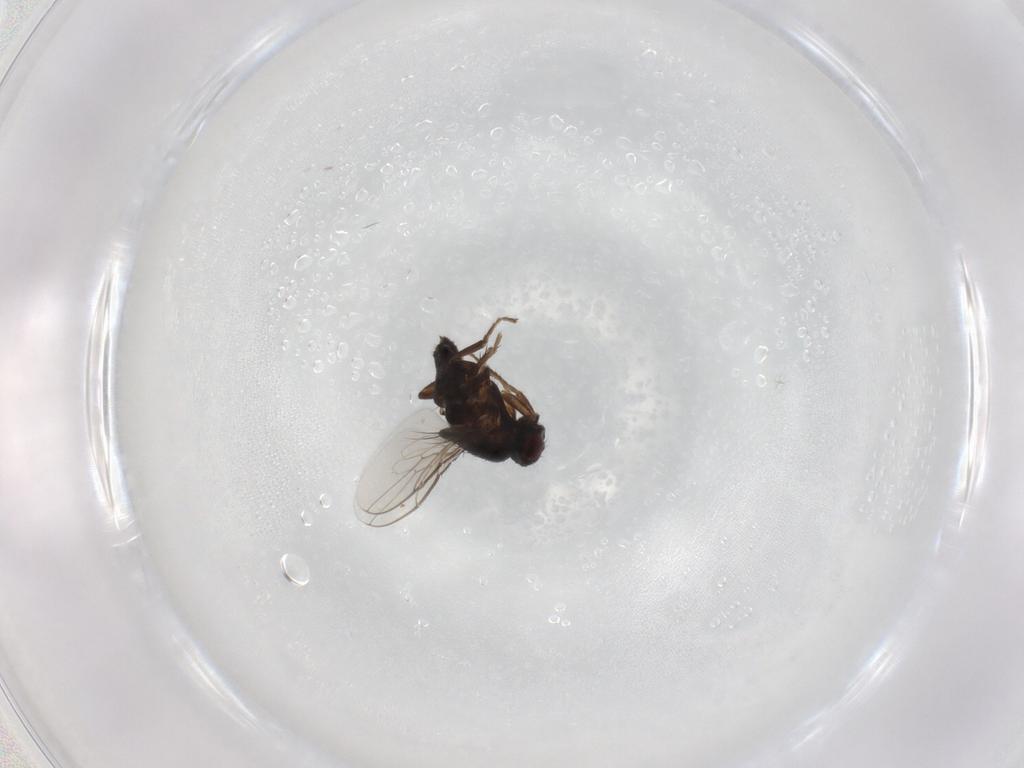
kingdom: Animalia
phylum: Arthropoda
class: Insecta
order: Diptera
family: Sphaeroceridae
